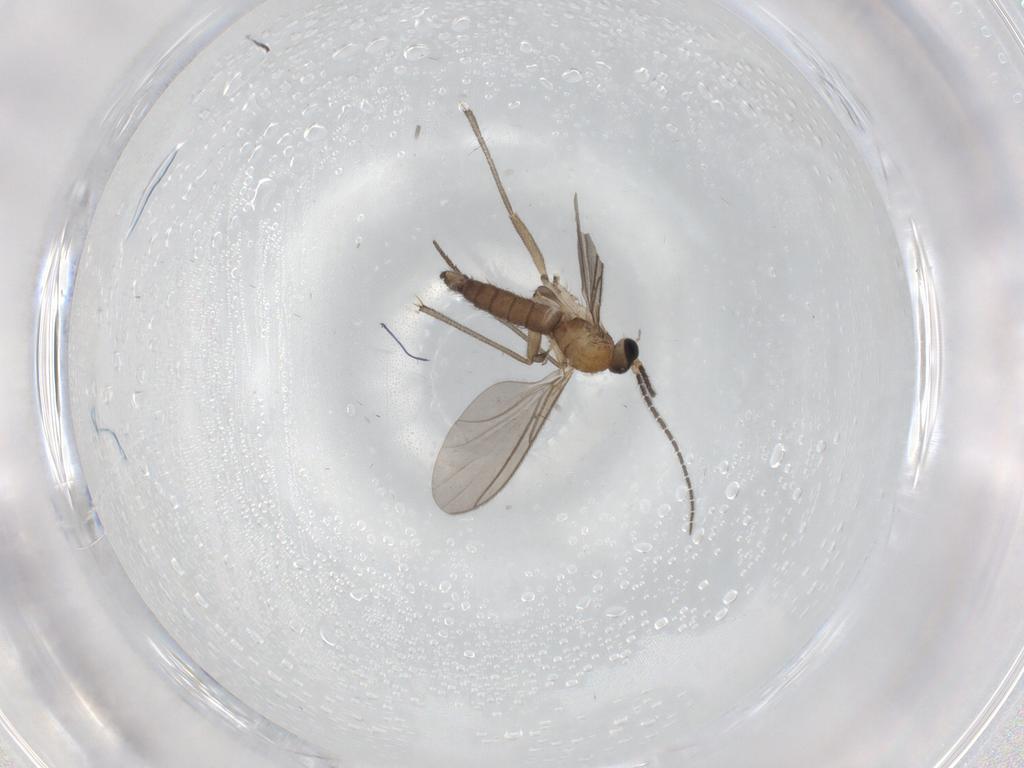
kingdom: Animalia
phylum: Arthropoda
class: Insecta
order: Diptera
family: Sciaridae
